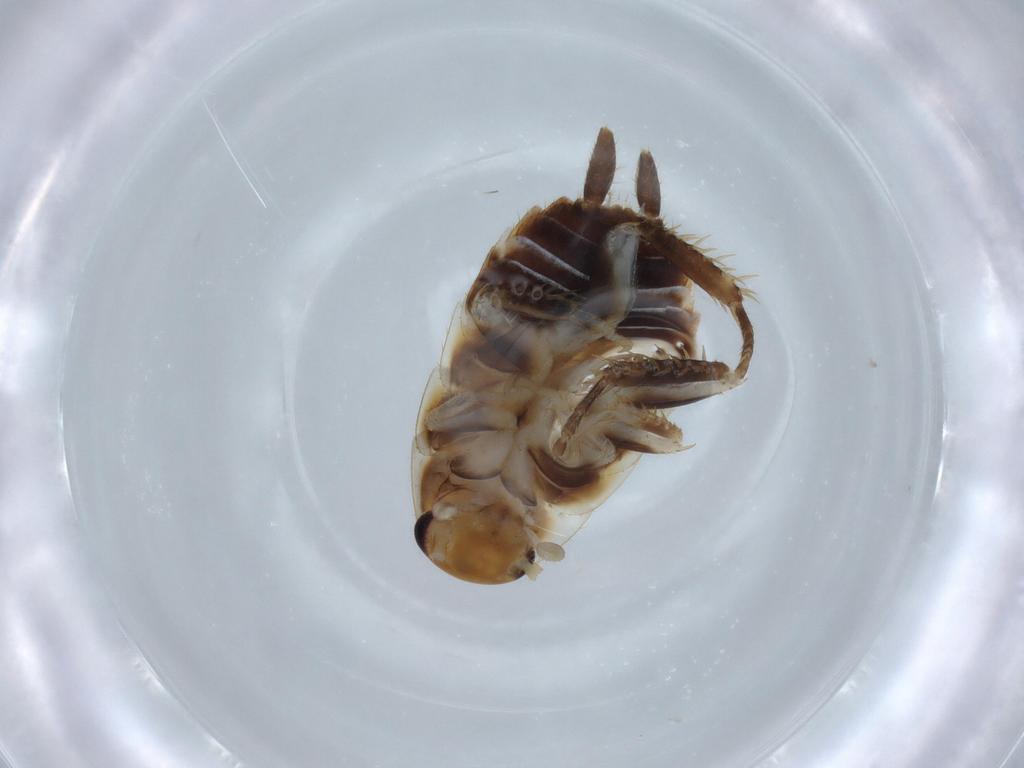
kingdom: Animalia
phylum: Arthropoda
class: Insecta
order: Blattodea
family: Ectobiidae
